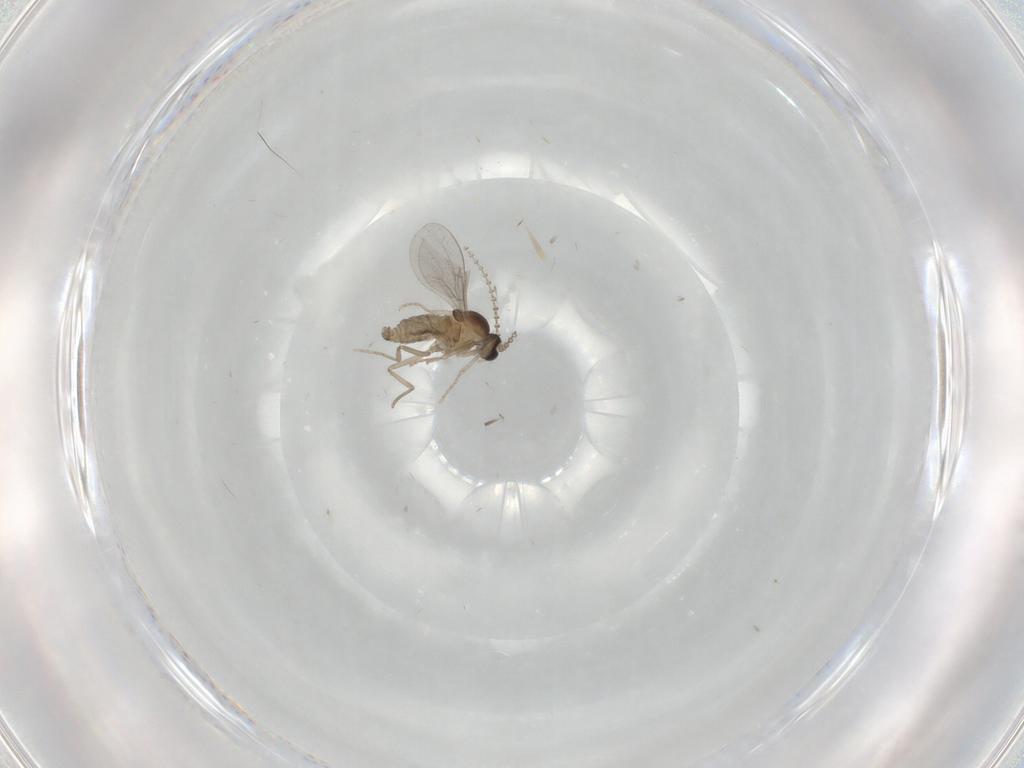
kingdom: Animalia
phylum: Arthropoda
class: Insecta
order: Diptera
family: Cecidomyiidae
